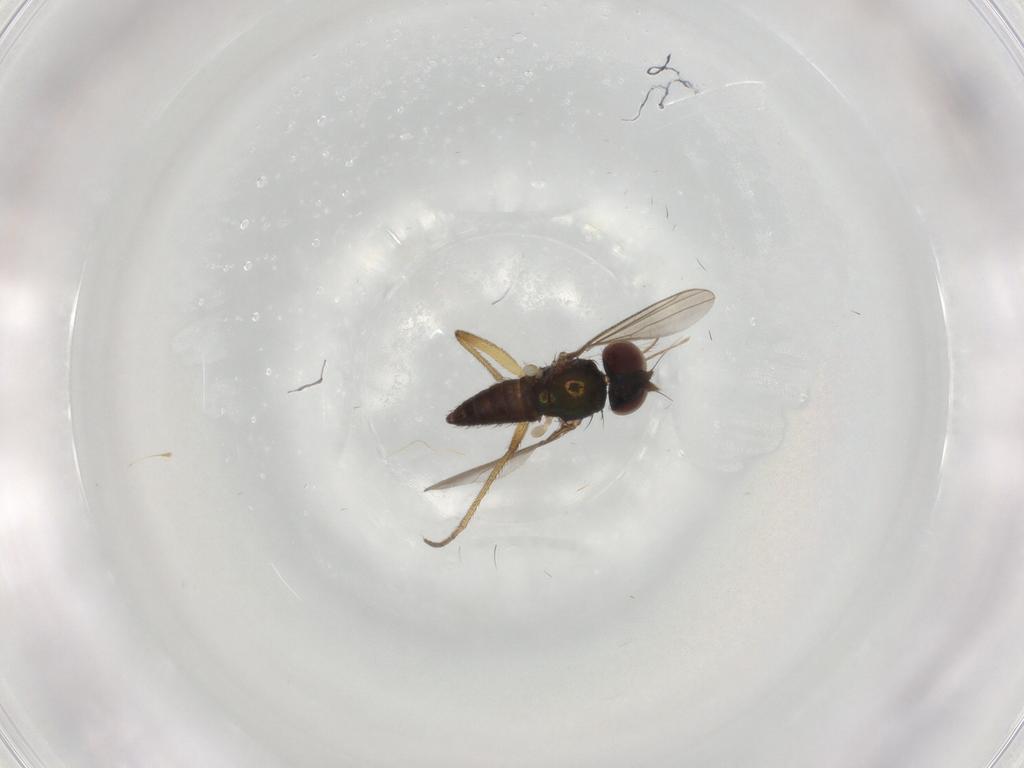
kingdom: Animalia
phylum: Arthropoda
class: Insecta
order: Diptera
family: Dolichopodidae
